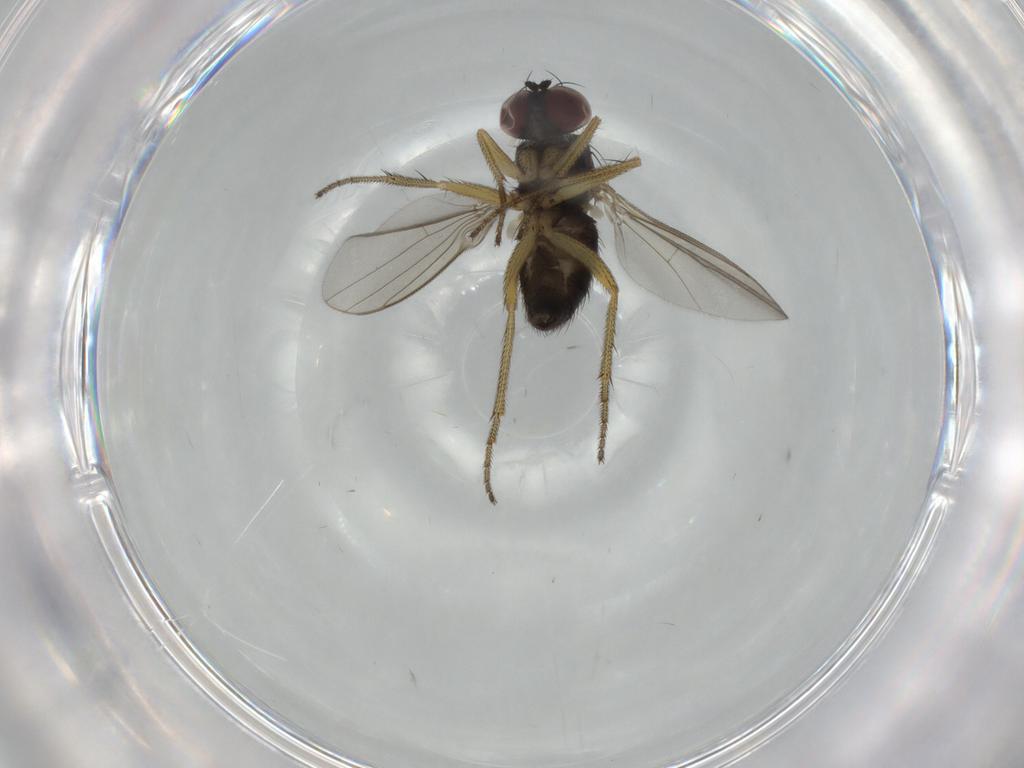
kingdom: Animalia
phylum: Arthropoda
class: Insecta
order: Diptera
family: Dolichopodidae
